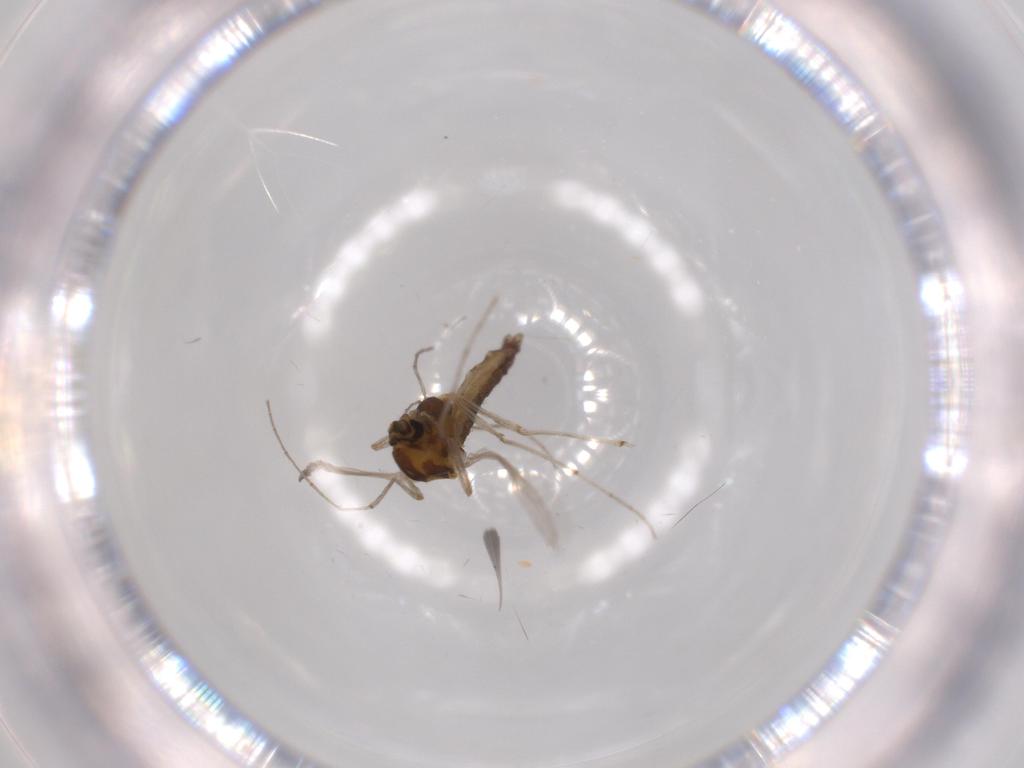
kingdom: Animalia
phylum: Arthropoda
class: Insecta
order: Diptera
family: Chironomidae
